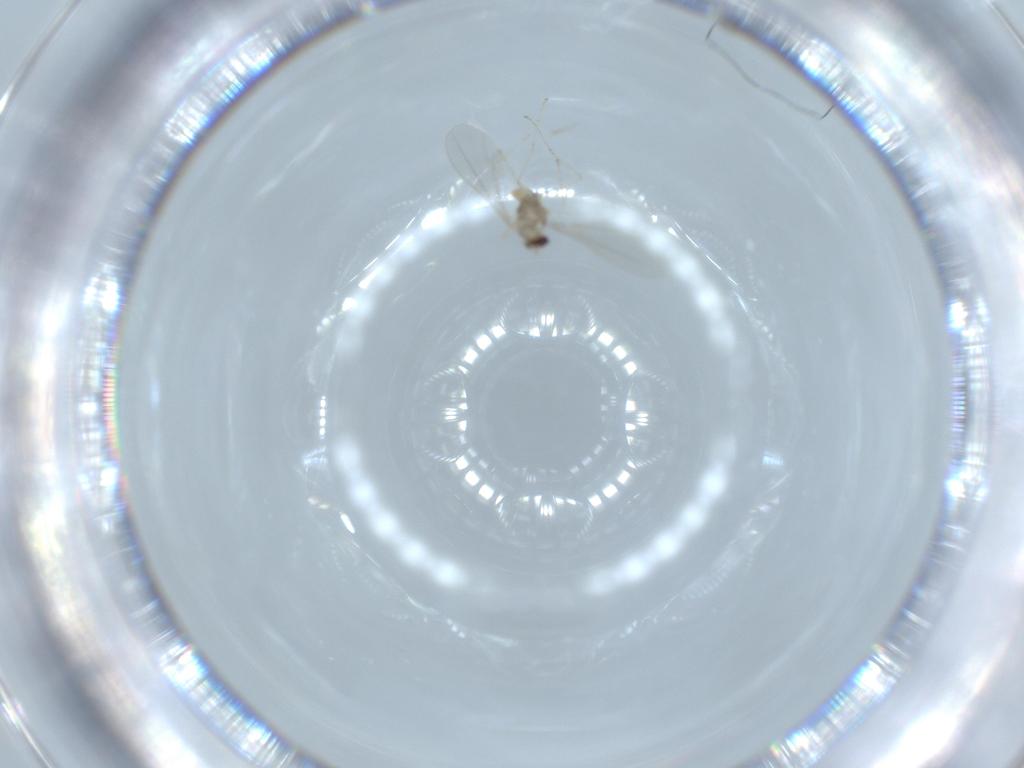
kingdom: Animalia
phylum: Arthropoda
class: Insecta
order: Diptera
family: Cecidomyiidae
